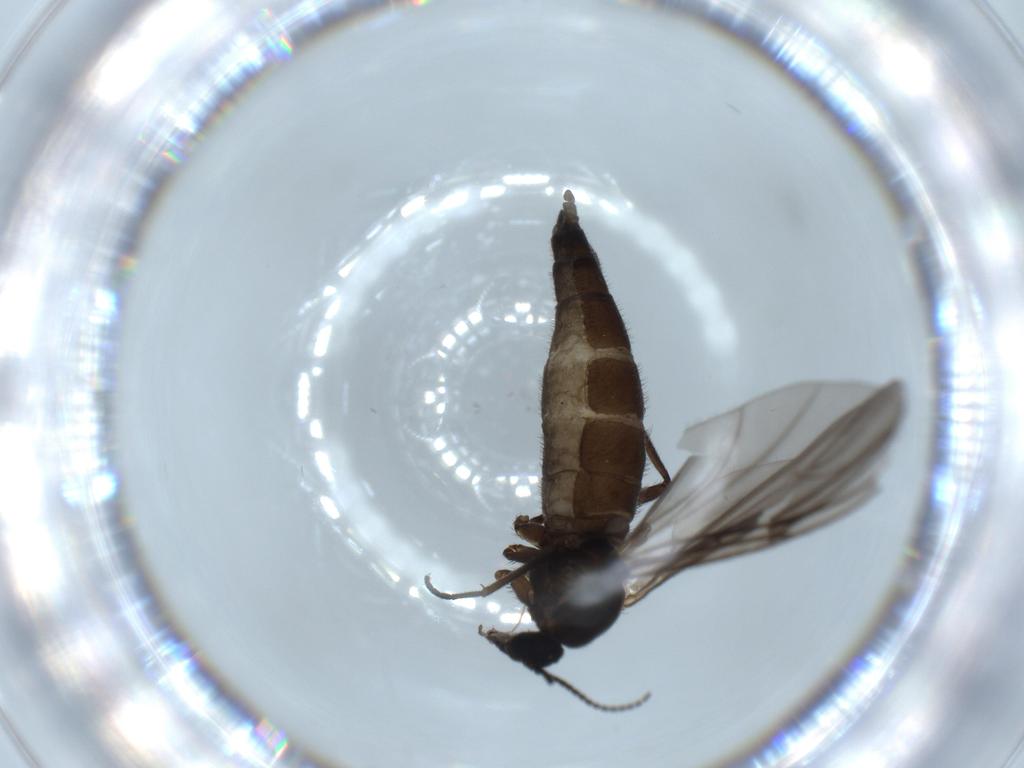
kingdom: Animalia
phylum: Arthropoda
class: Insecta
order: Diptera
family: Sciaridae
